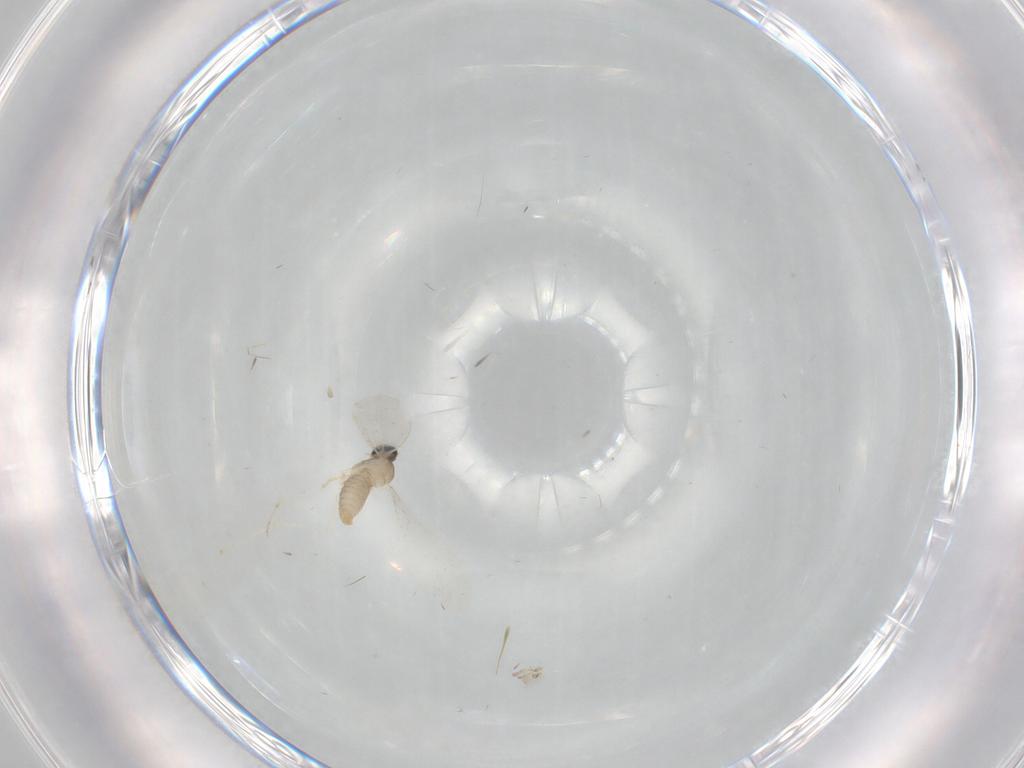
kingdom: Animalia
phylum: Arthropoda
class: Insecta
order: Diptera
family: Cecidomyiidae
